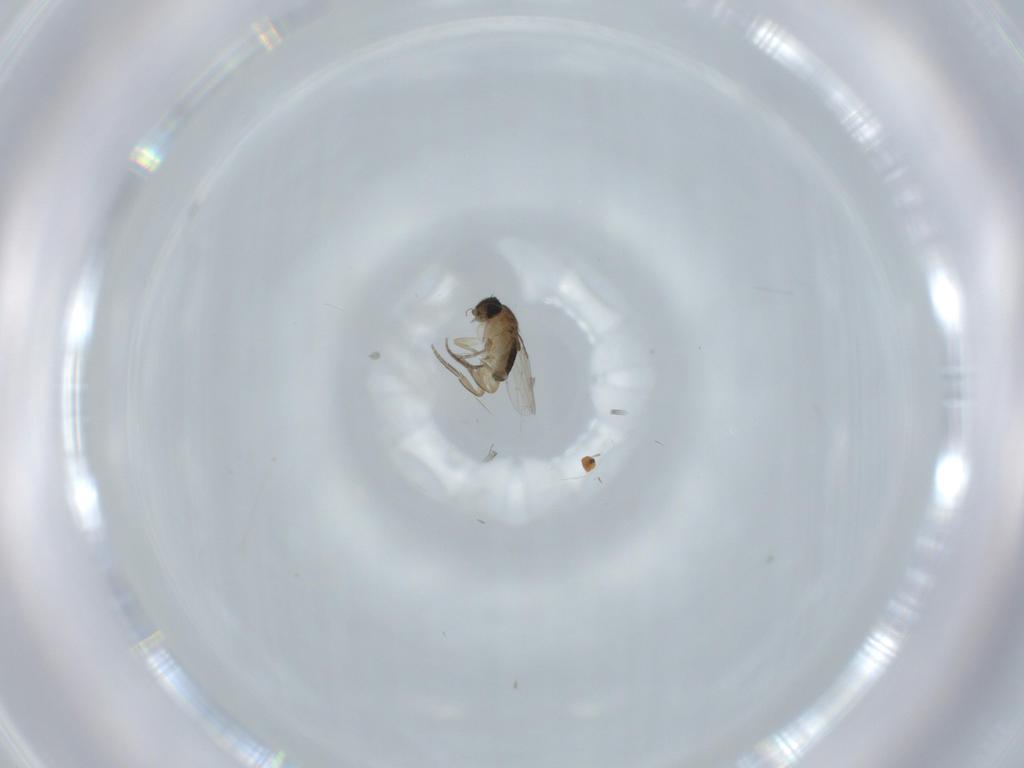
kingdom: Animalia
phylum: Arthropoda
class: Insecta
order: Diptera
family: Phoridae
